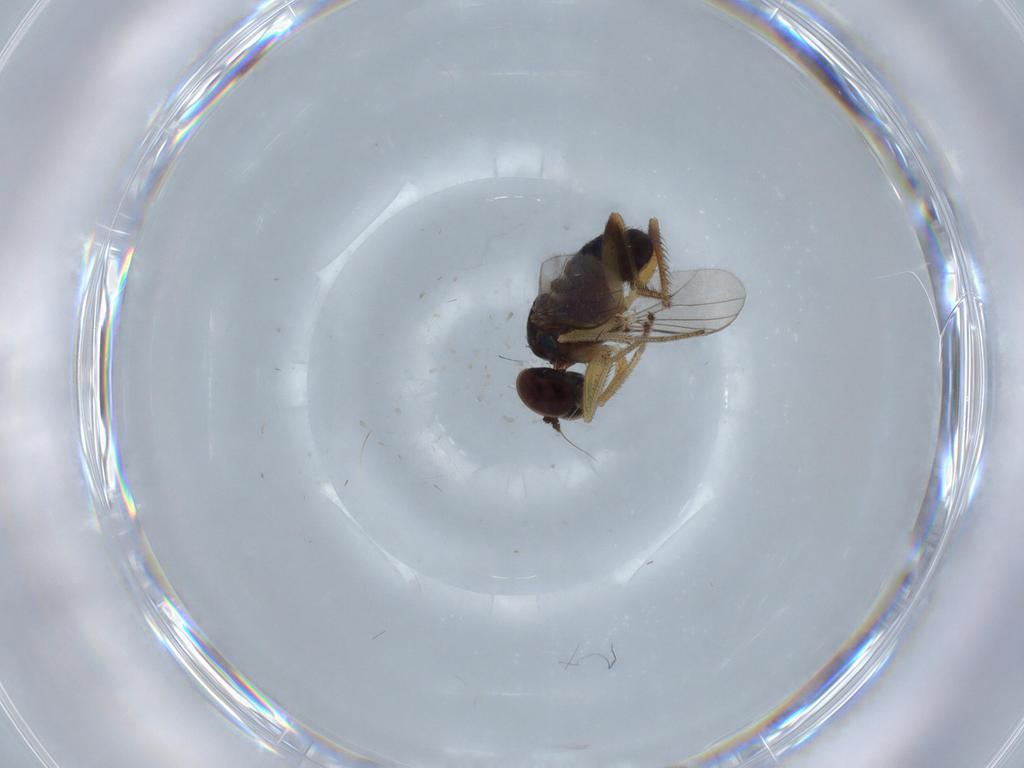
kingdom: Animalia
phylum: Arthropoda
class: Insecta
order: Diptera
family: Dolichopodidae
